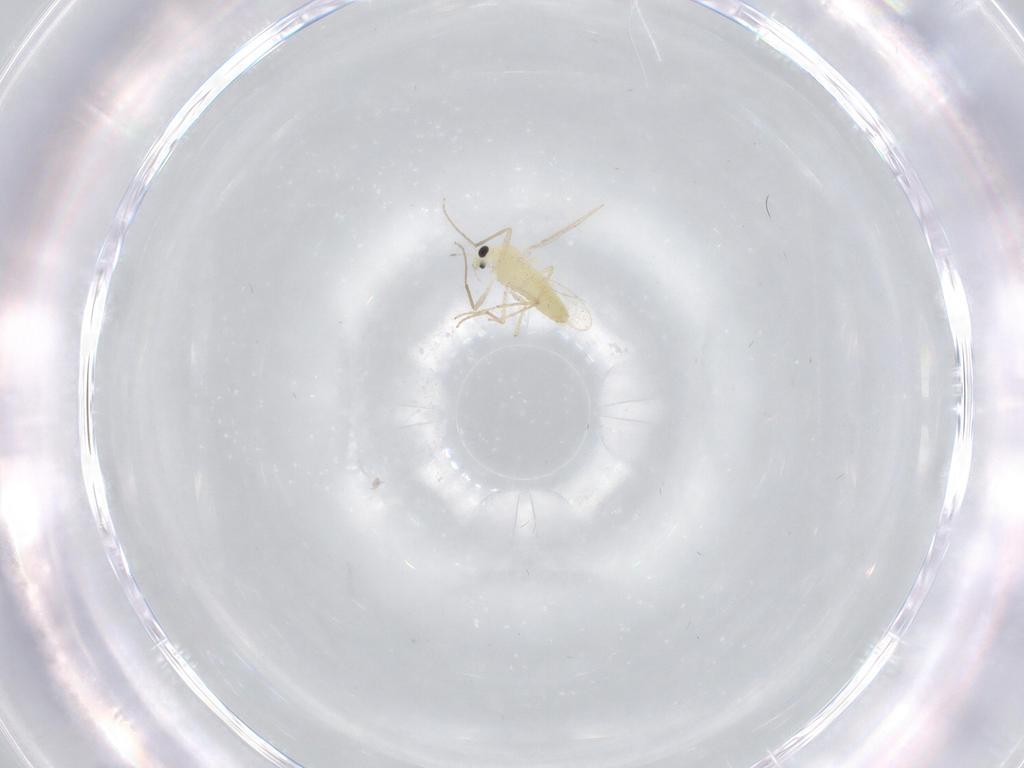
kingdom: Animalia
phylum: Arthropoda
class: Insecta
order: Diptera
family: Chironomidae
